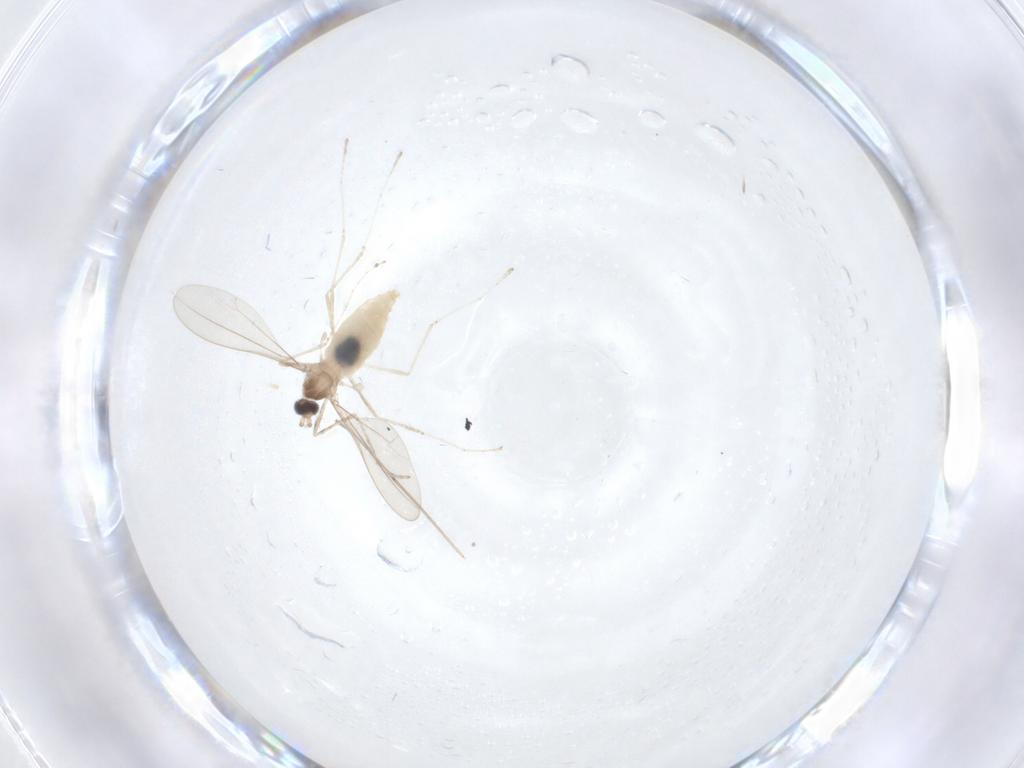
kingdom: Animalia
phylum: Arthropoda
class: Insecta
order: Diptera
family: Cecidomyiidae
